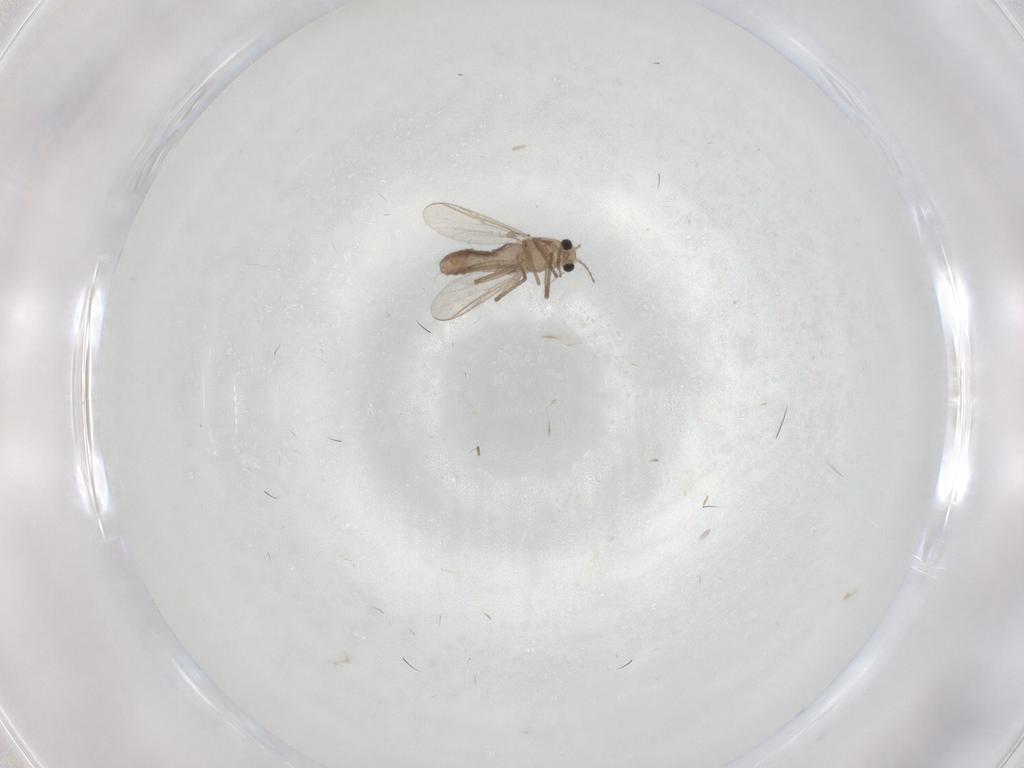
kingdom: Animalia
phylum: Arthropoda
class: Insecta
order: Diptera
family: Chironomidae
